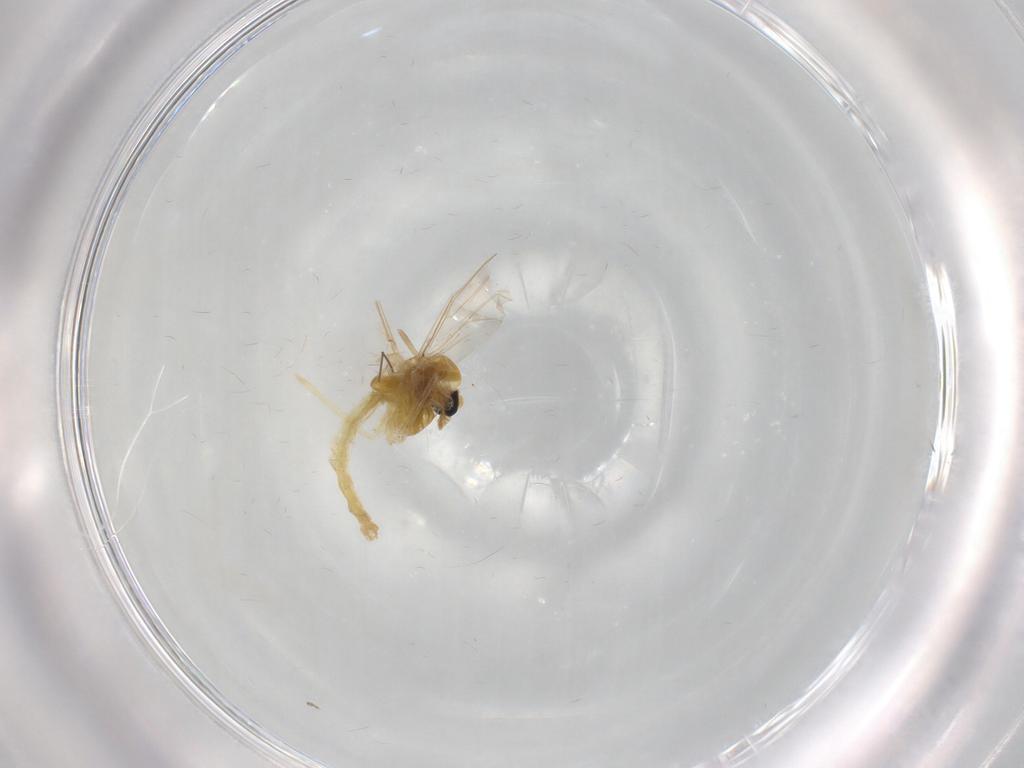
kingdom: Animalia
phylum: Arthropoda
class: Insecta
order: Diptera
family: Chironomidae
